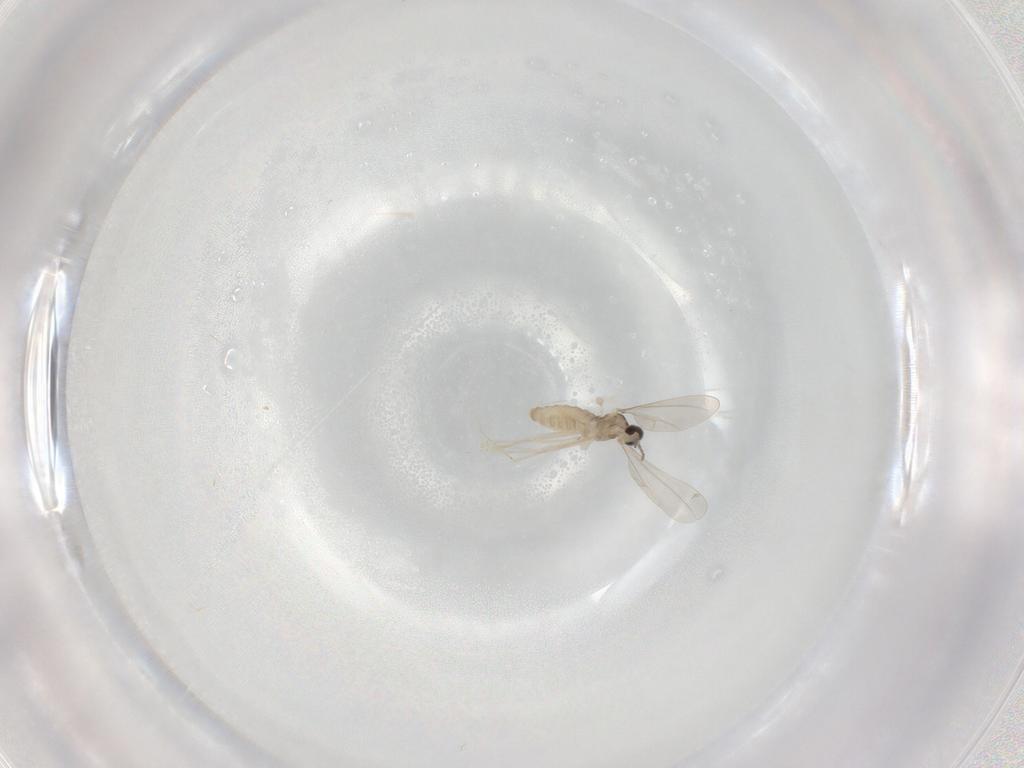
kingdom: Animalia
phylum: Arthropoda
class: Insecta
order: Diptera
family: Cecidomyiidae
